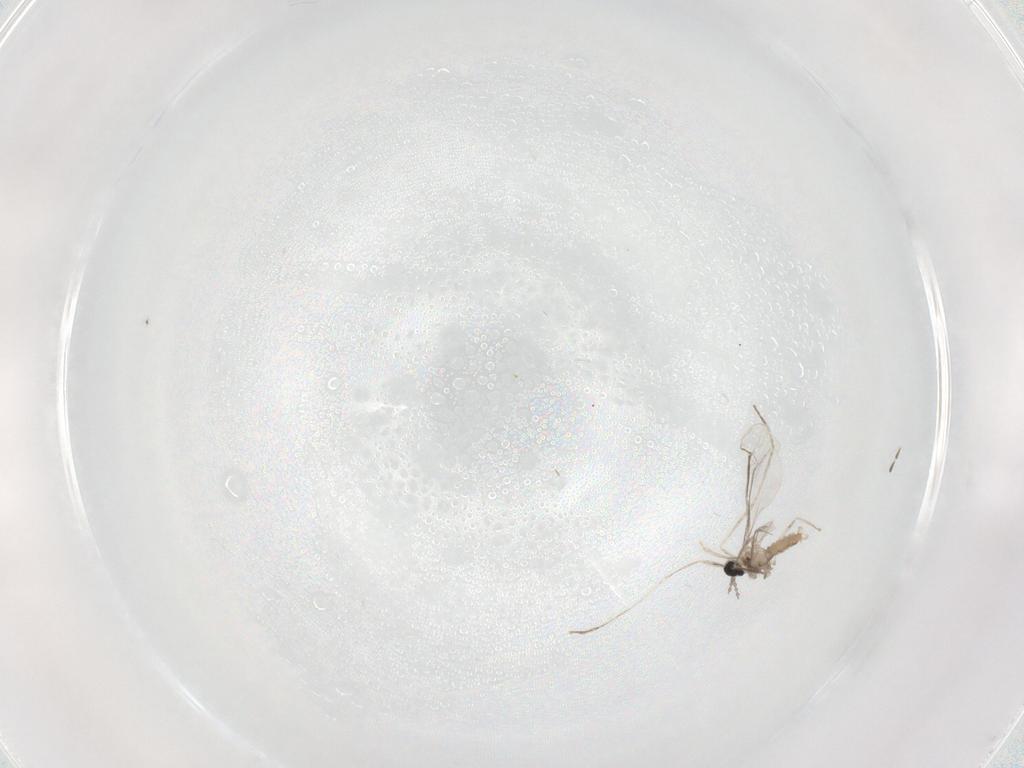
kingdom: Animalia
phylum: Arthropoda
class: Insecta
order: Diptera
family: Cecidomyiidae
